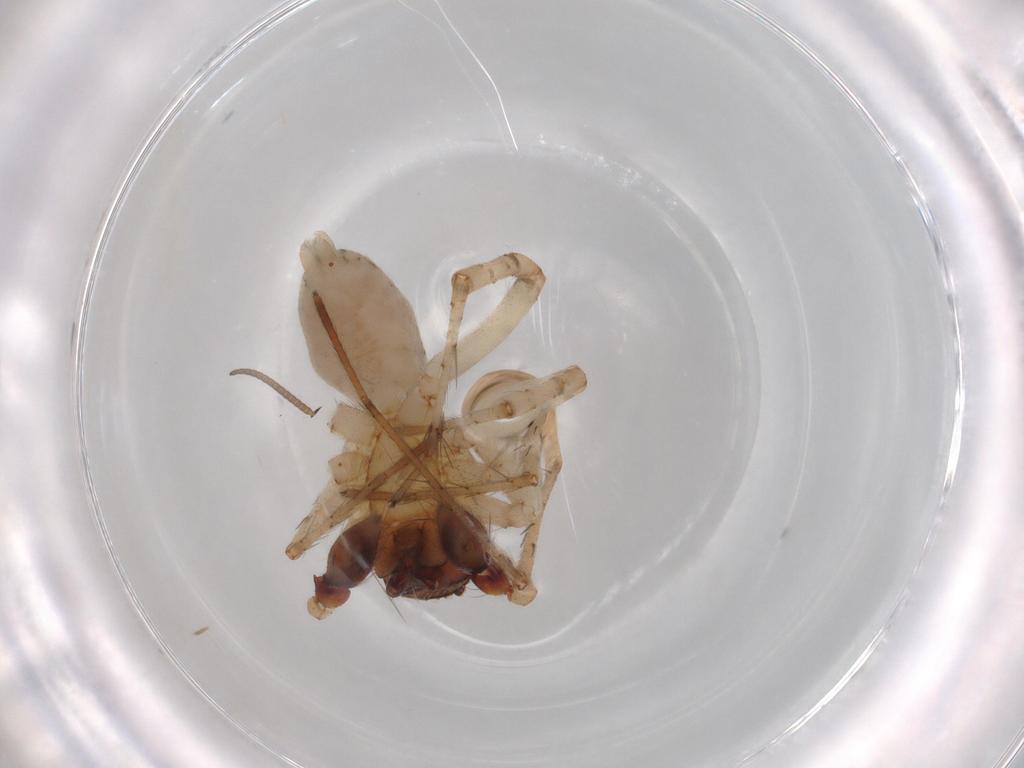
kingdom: Animalia
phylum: Arthropoda
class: Arachnida
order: Araneae
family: Anyphaenidae
